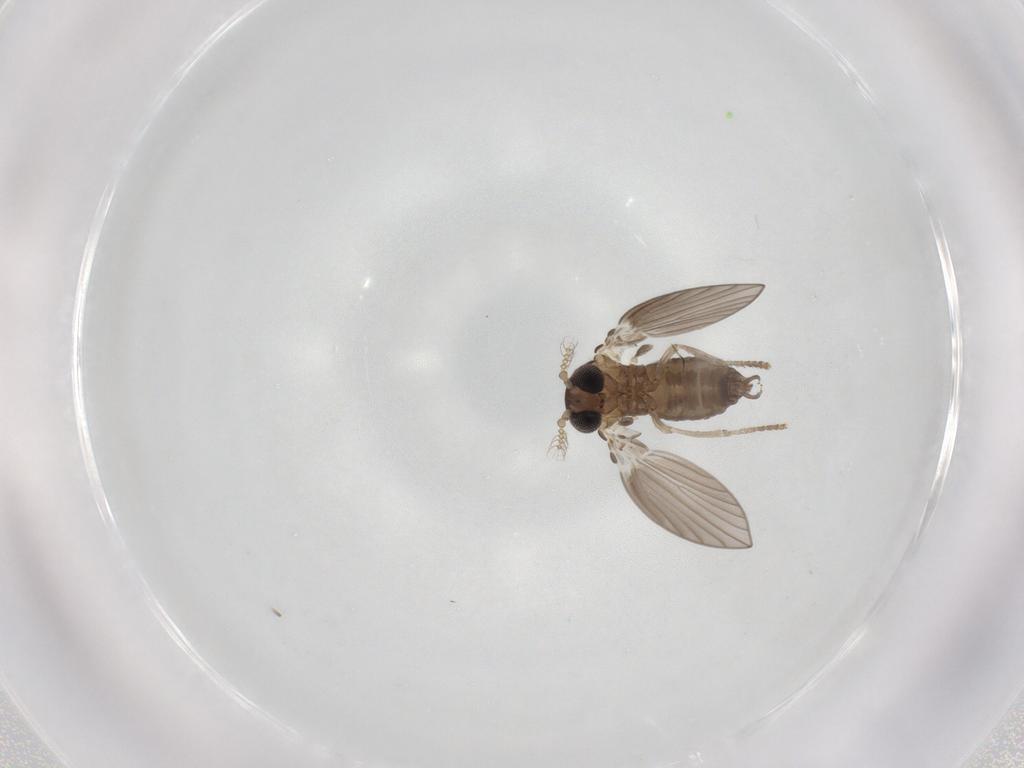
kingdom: Animalia
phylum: Arthropoda
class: Insecta
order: Diptera
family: Psychodidae
